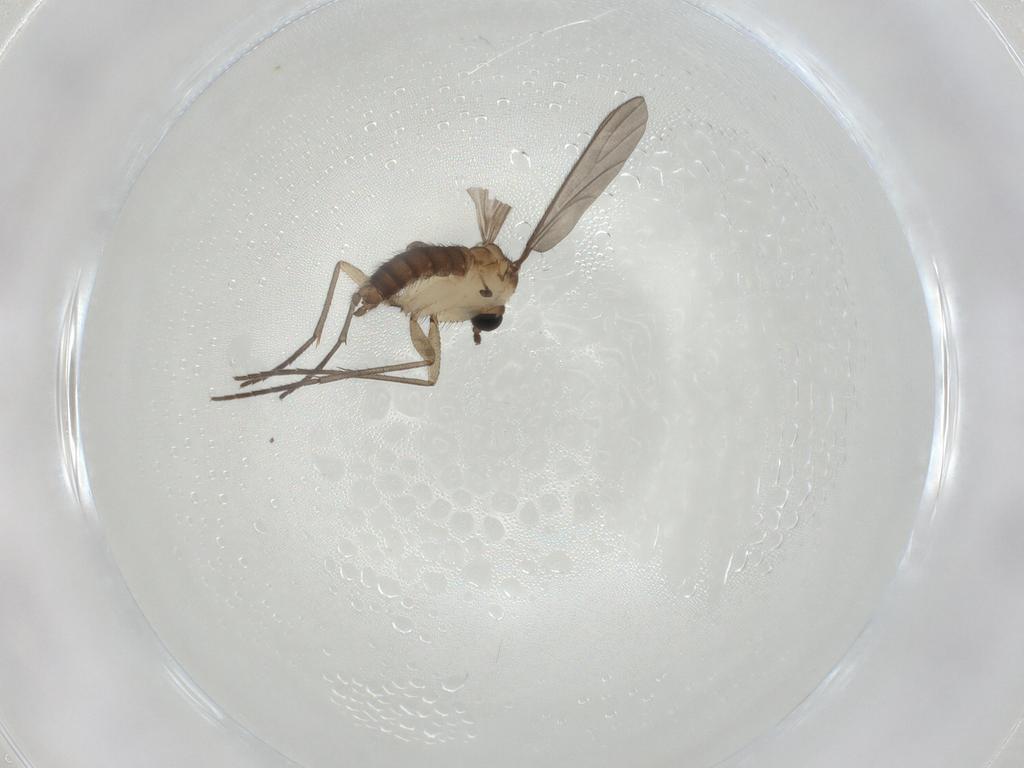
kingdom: Animalia
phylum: Arthropoda
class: Insecta
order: Diptera
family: Sciaridae
